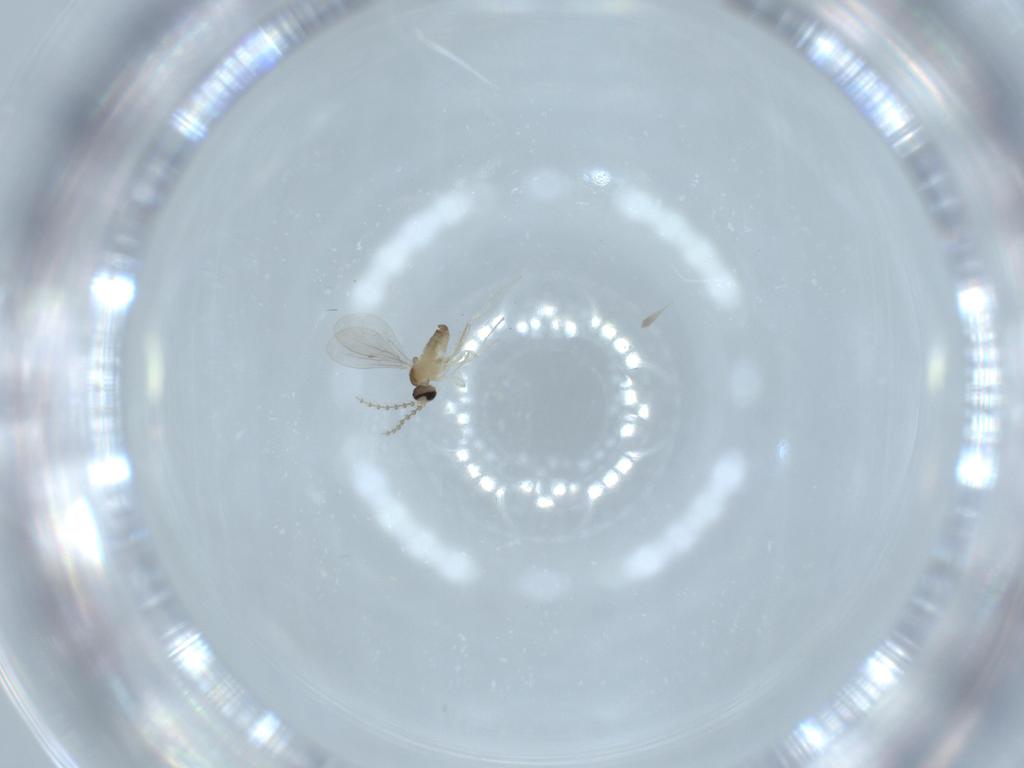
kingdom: Animalia
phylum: Arthropoda
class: Insecta
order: Diptera
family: Cecidomyiidae
